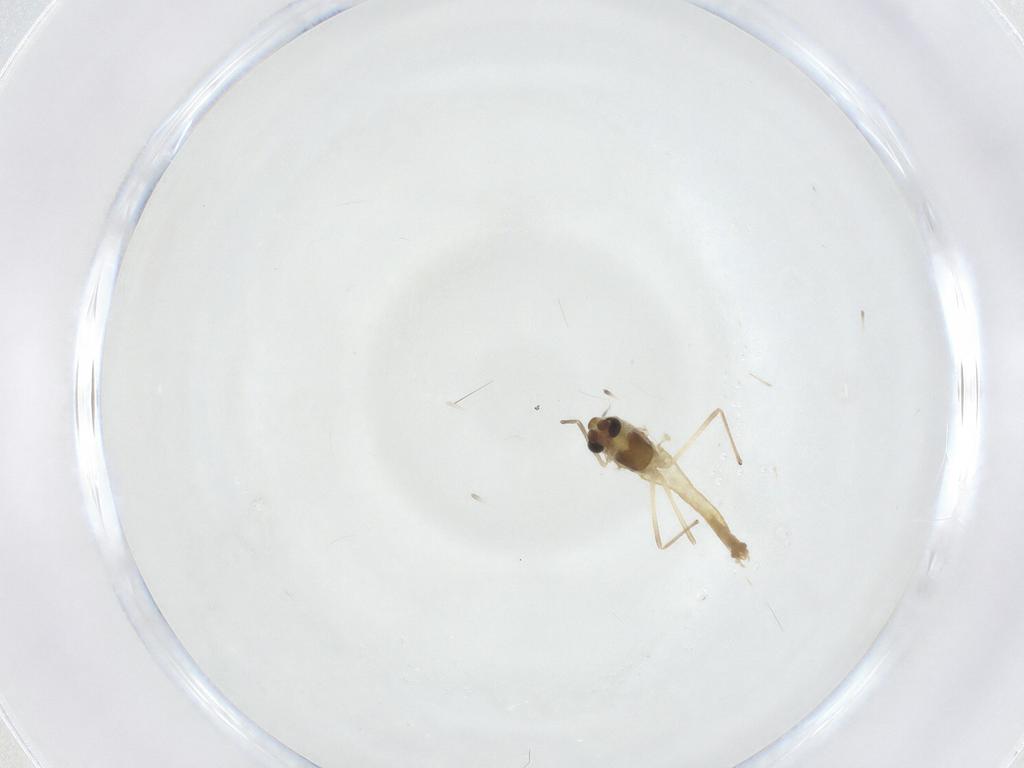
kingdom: Animalia
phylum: Arthropoda
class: Insecta
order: Diptera
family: Chironomidae
